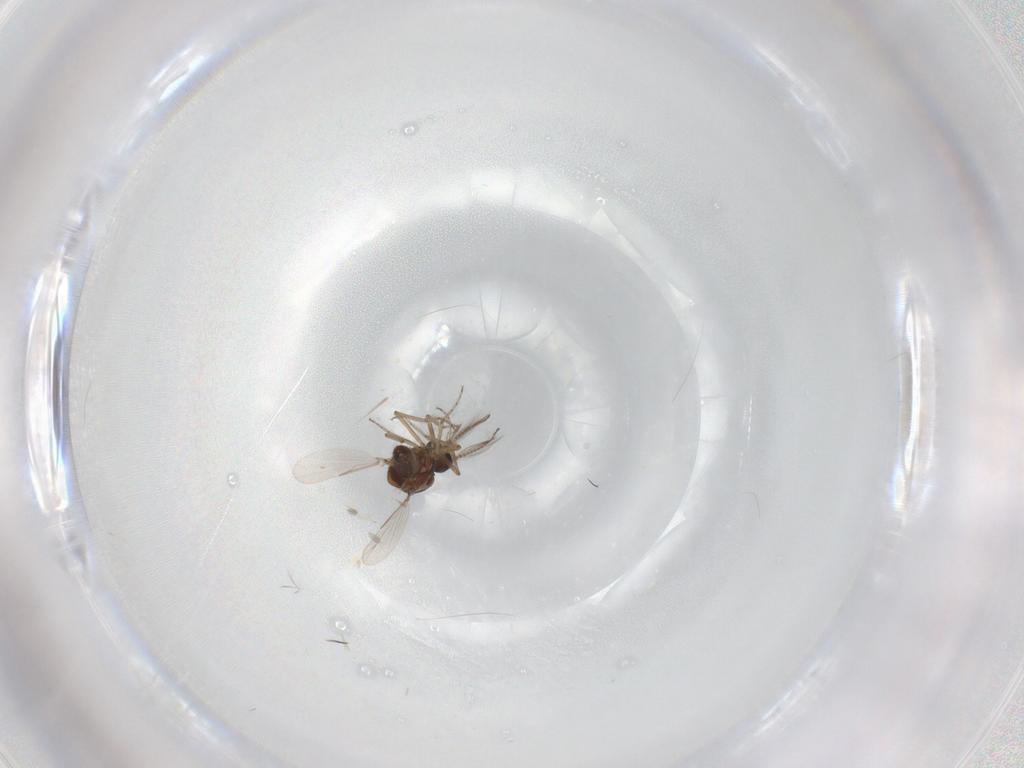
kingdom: Animalia
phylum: Arthropoda
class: Insecta
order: Diptera
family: Ceratopogonidae
